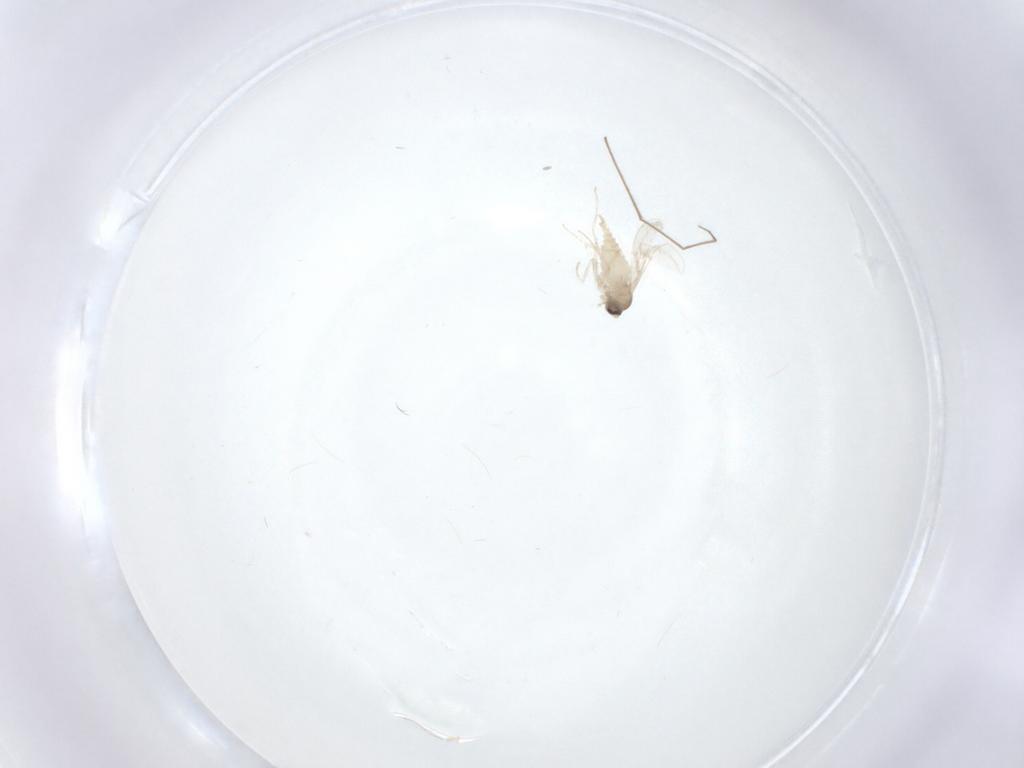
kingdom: Animalia
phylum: Arthropoda
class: Insecta
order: Diptera
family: Cecidomyiidae
